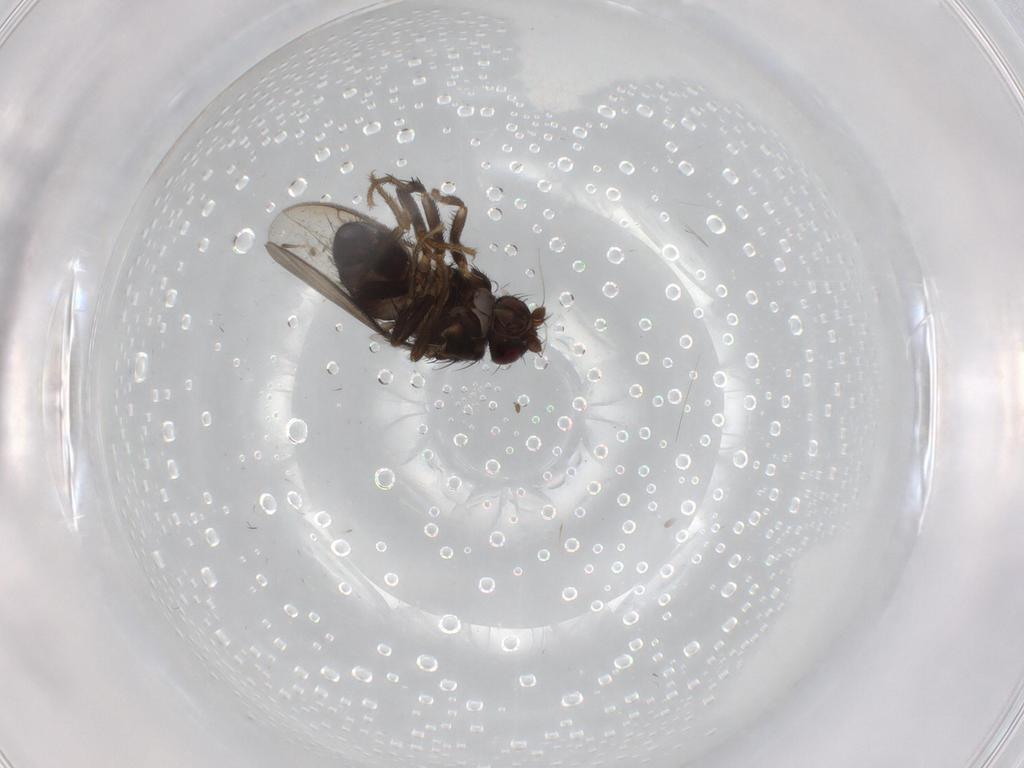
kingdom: Animalia
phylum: Arthropoda
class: Insecta
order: Diptera
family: Sphaeroceridae
